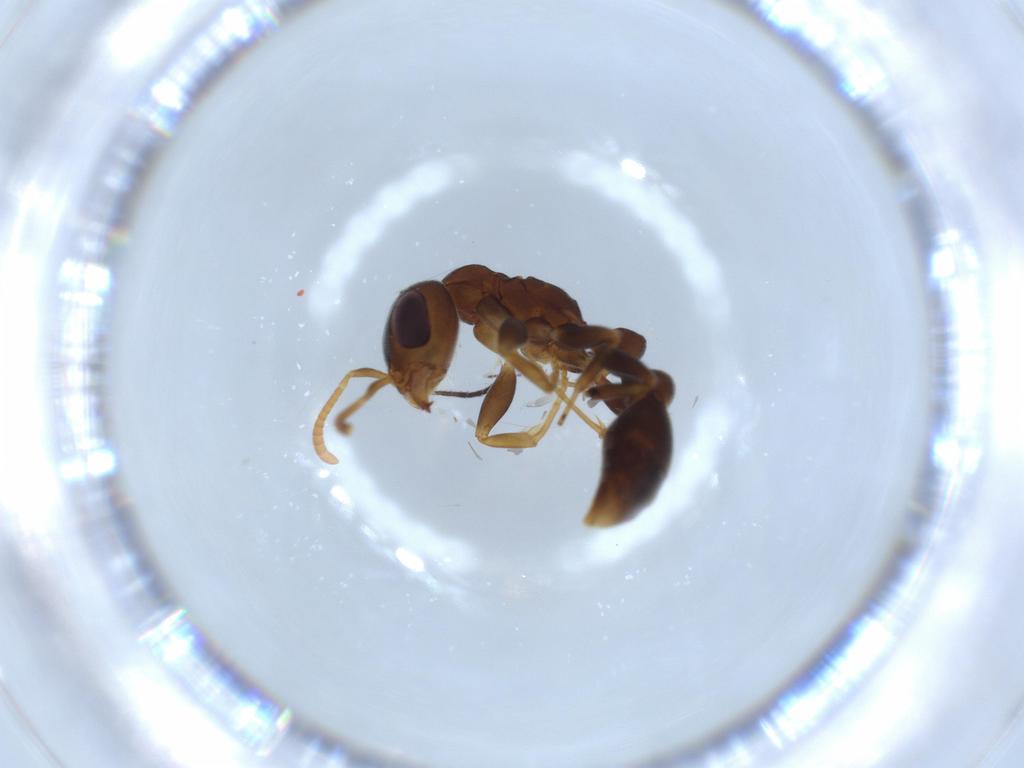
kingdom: Animalia
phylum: Arthropoda
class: Insecta
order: Hymenoptera
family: Formicidae
